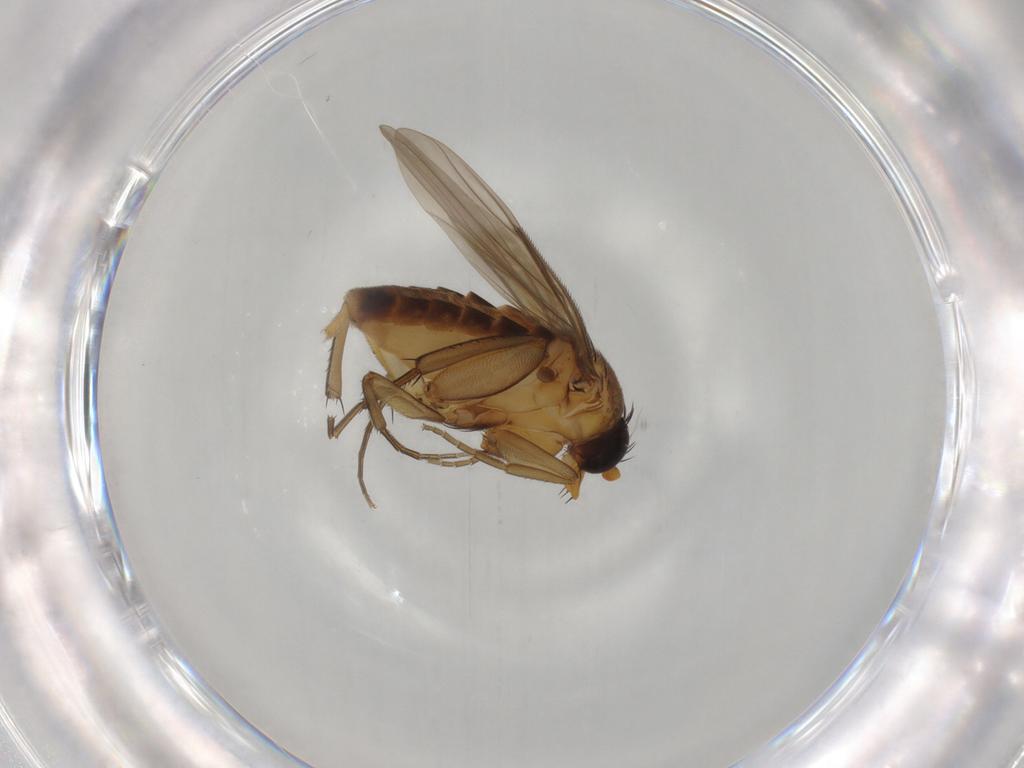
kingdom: Animalia
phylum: Arthropoda
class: Insecta
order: Diptera
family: Phoridae
